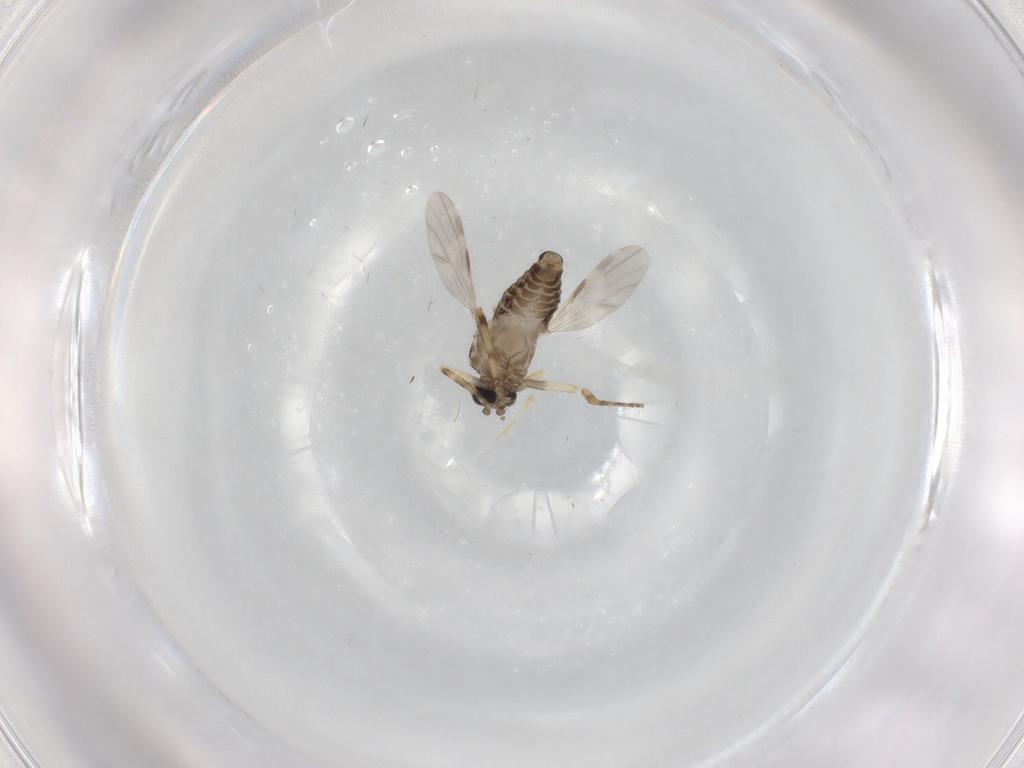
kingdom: Animalia
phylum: Arthropoda
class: Insecta
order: Diptera
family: Ceratopogonidae
